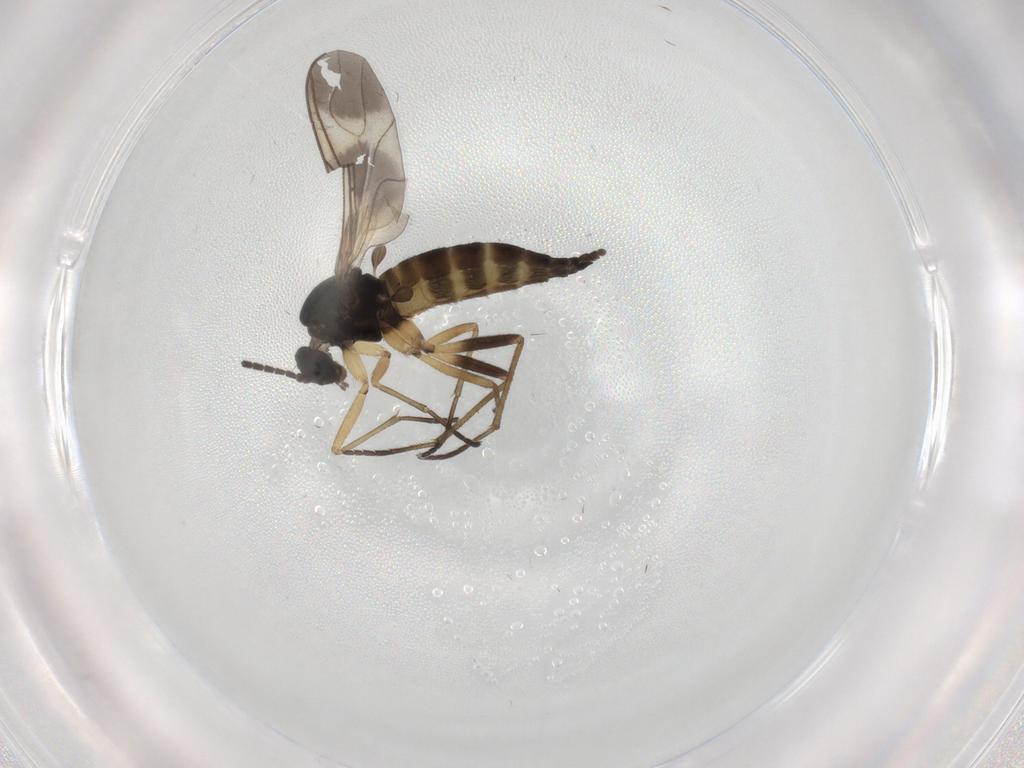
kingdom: Animalia
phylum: Arthropoda
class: Insecta
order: Diptera
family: Sciaridae
